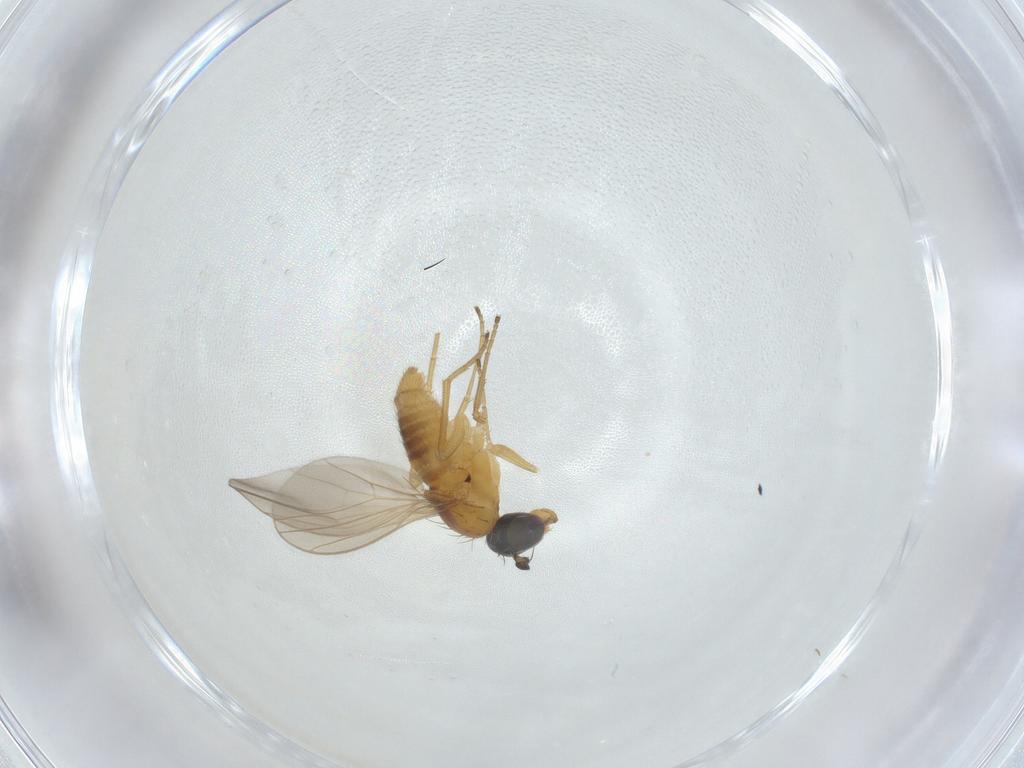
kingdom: Animalia
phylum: Arthropoda
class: Insecta
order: Diptera
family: Dolichopodidae
